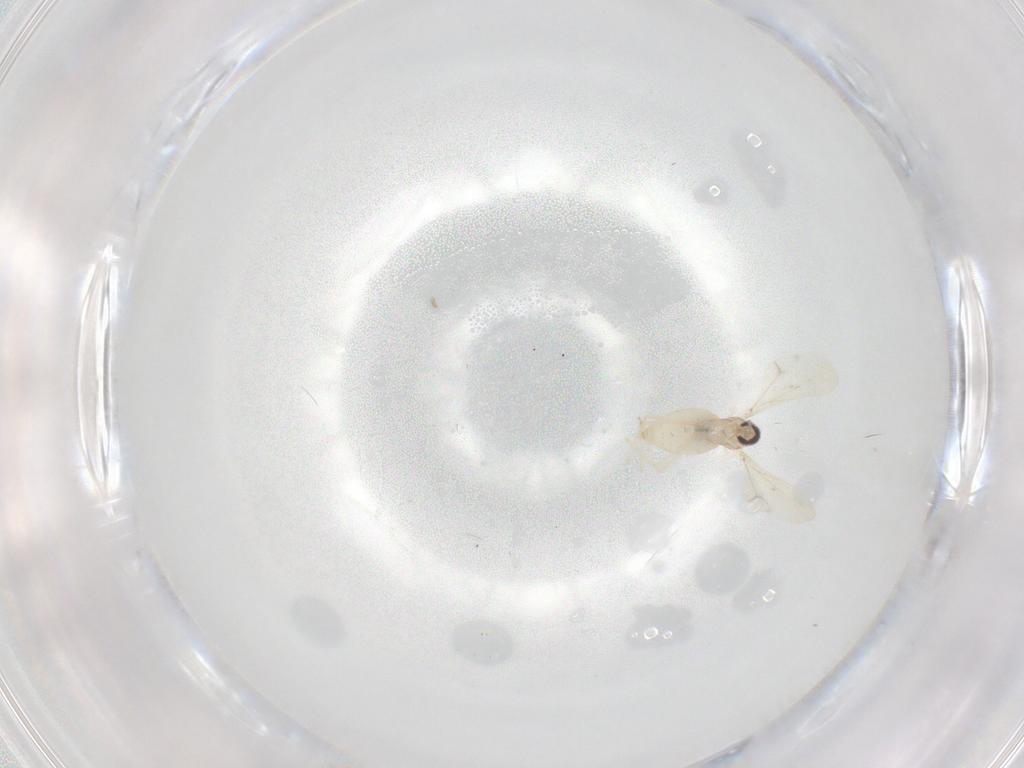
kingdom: Animalia
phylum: Arthropoda
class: Insecta
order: Diptera
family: Cecidomyiidae
